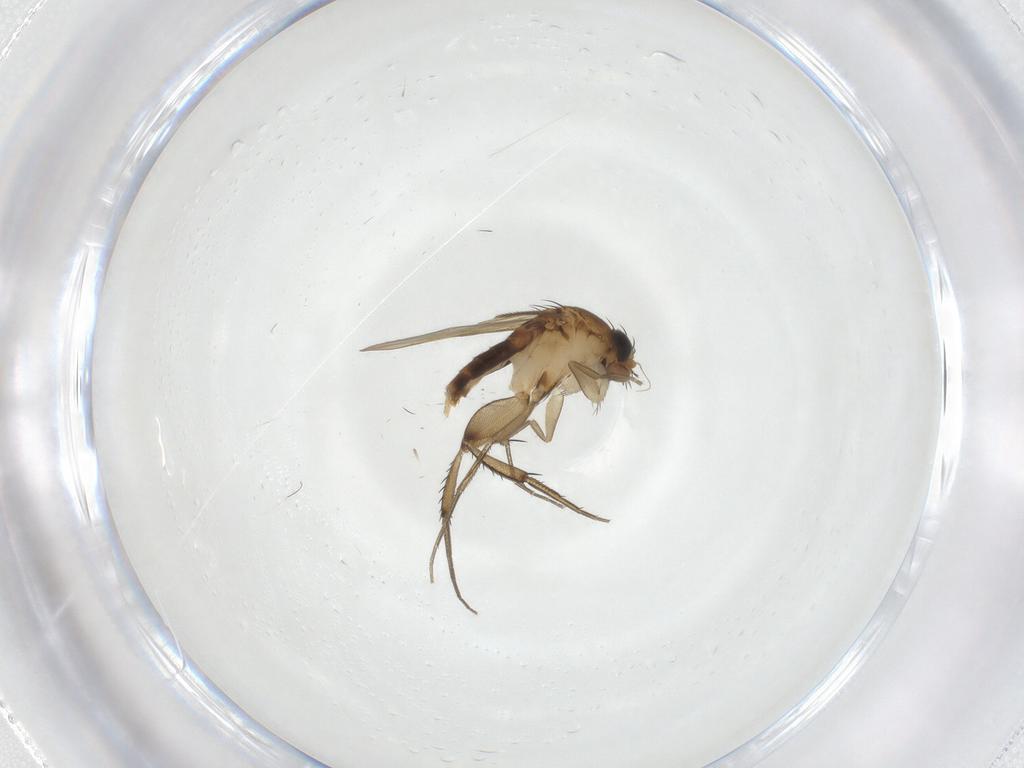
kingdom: Animalia
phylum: Arthropoda
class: Insecta
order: Diptera
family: Phoridae
